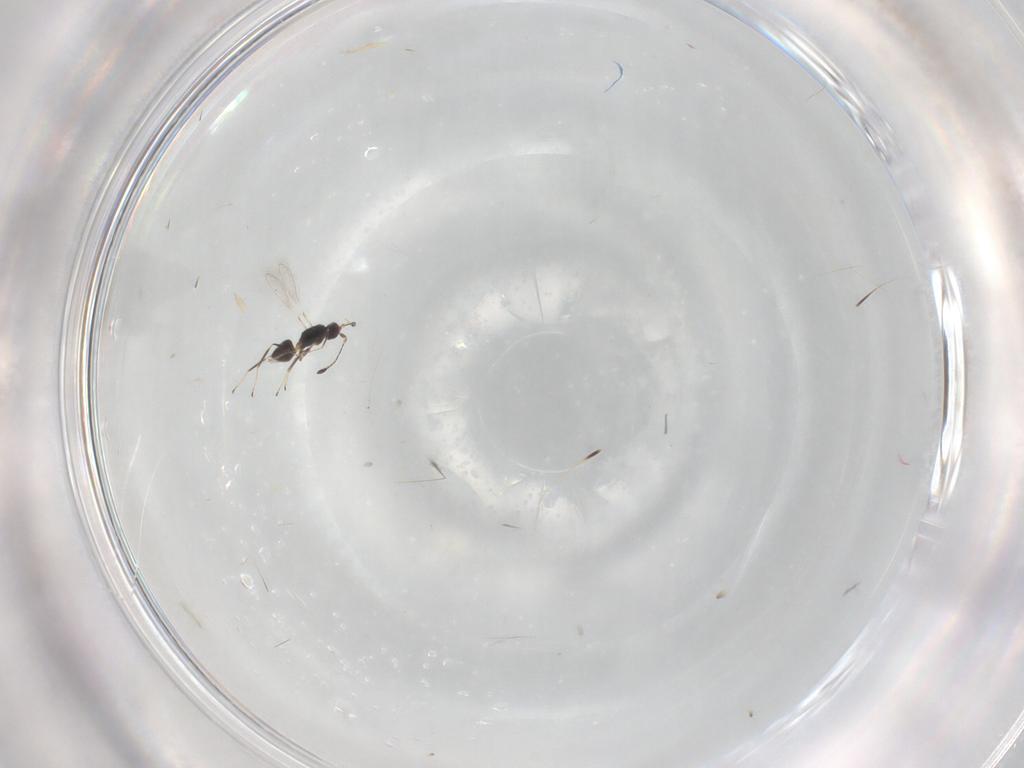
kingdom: Animalia
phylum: Arthropoda
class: Insecta
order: Hymenoptera
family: Mymaridae
